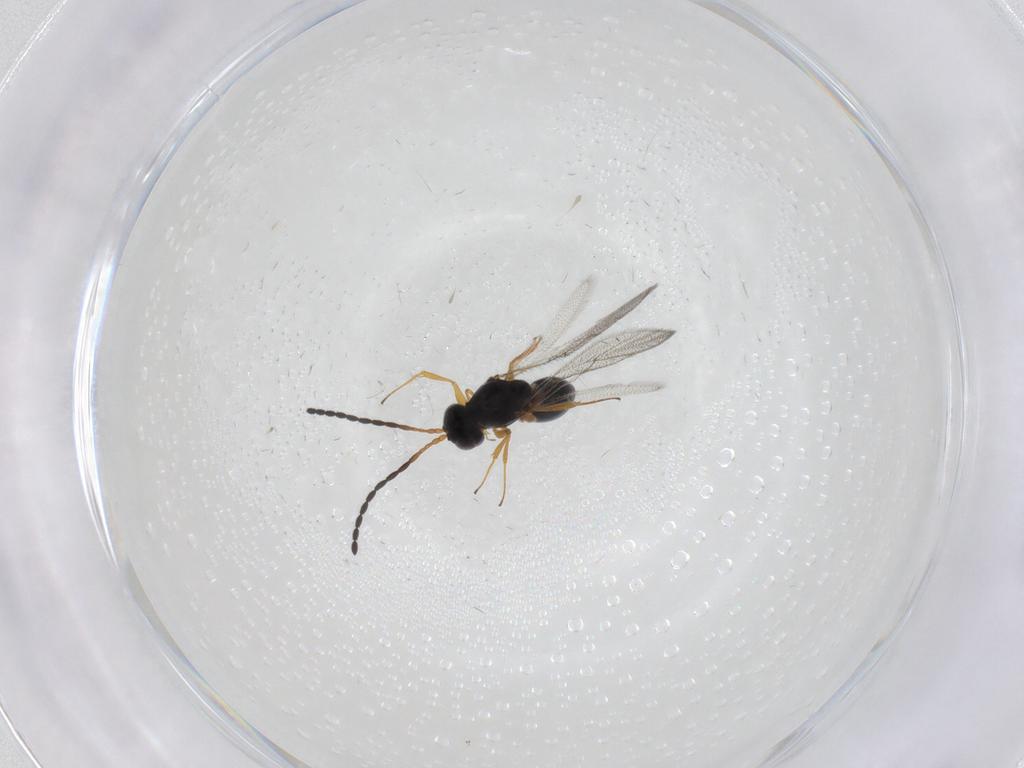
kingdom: Animalia
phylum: Arthropoda
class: Insecta
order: Hymenoptera
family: Figitidae
